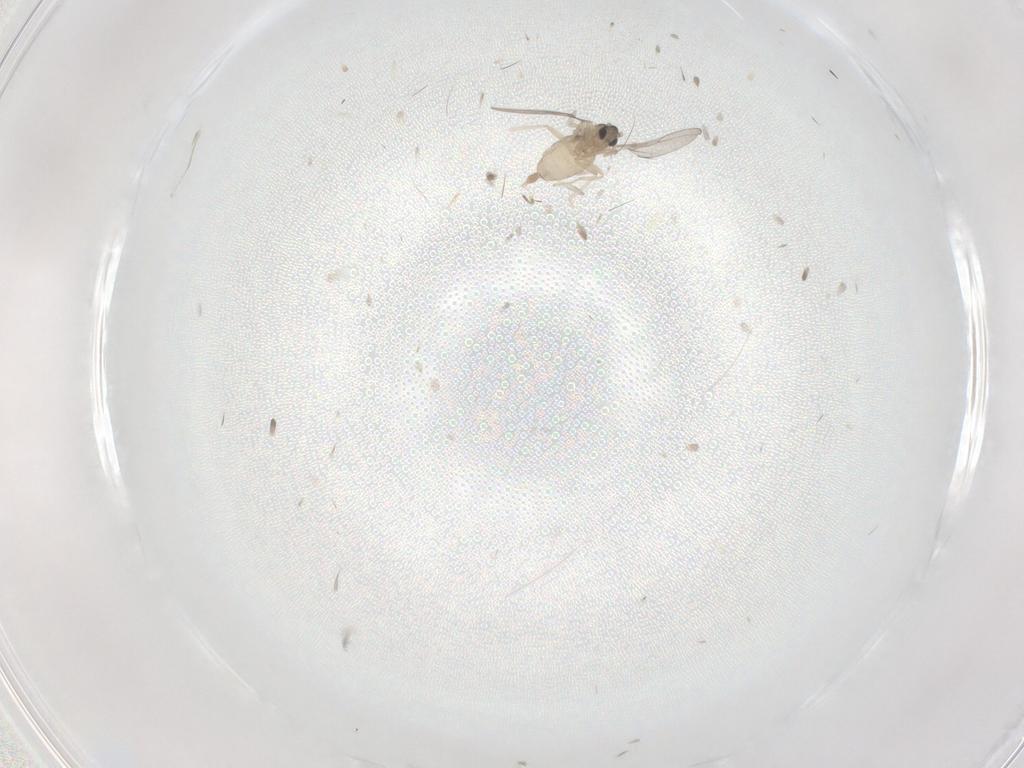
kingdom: Animalia
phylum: Arthropoda
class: Insecta
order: Diptera
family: Cecidomyiidae
